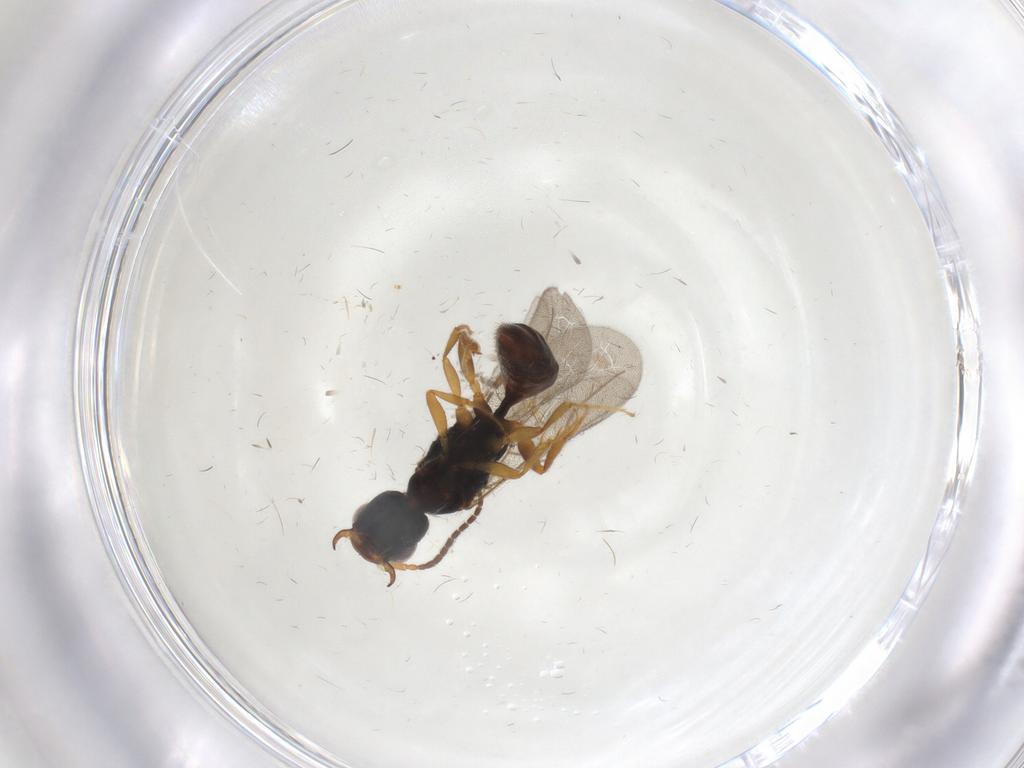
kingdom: Animalia
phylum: Arthropoda
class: Insecta
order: Hymenoptera
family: Bethylidae
